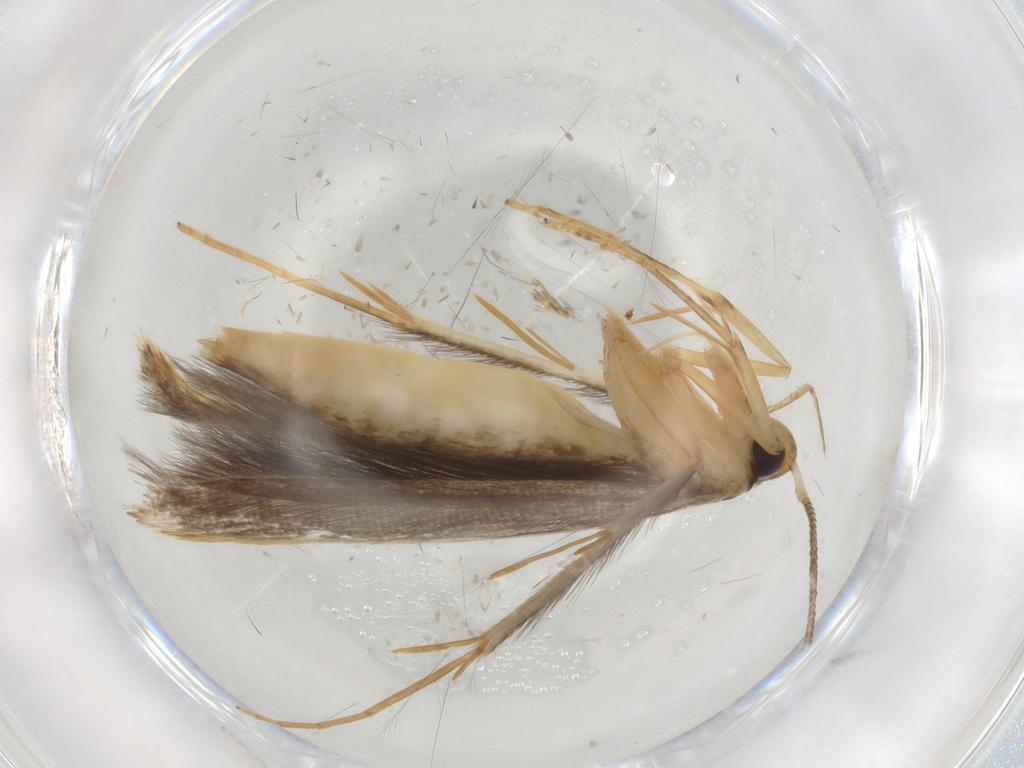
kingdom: Animalia
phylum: Arthropoda
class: Insecta
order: Lepidoptera
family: Pterolonchidae
